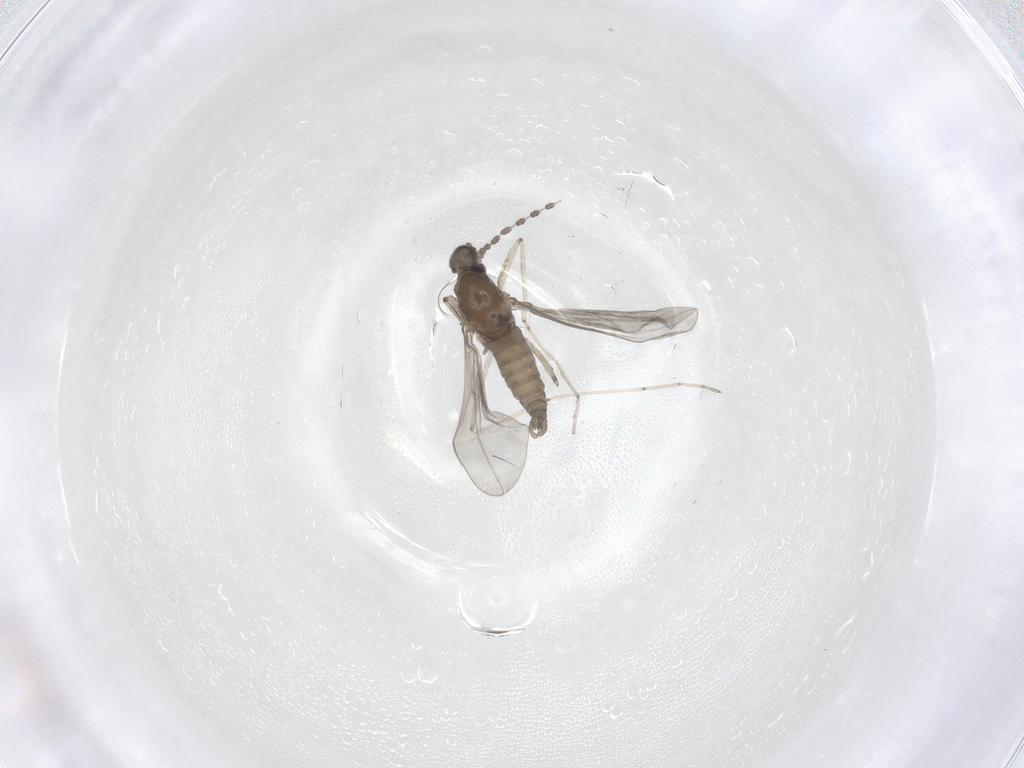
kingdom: Animalia
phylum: Arthropoda
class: Insecta
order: Diptera
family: Cecidomyiidae
